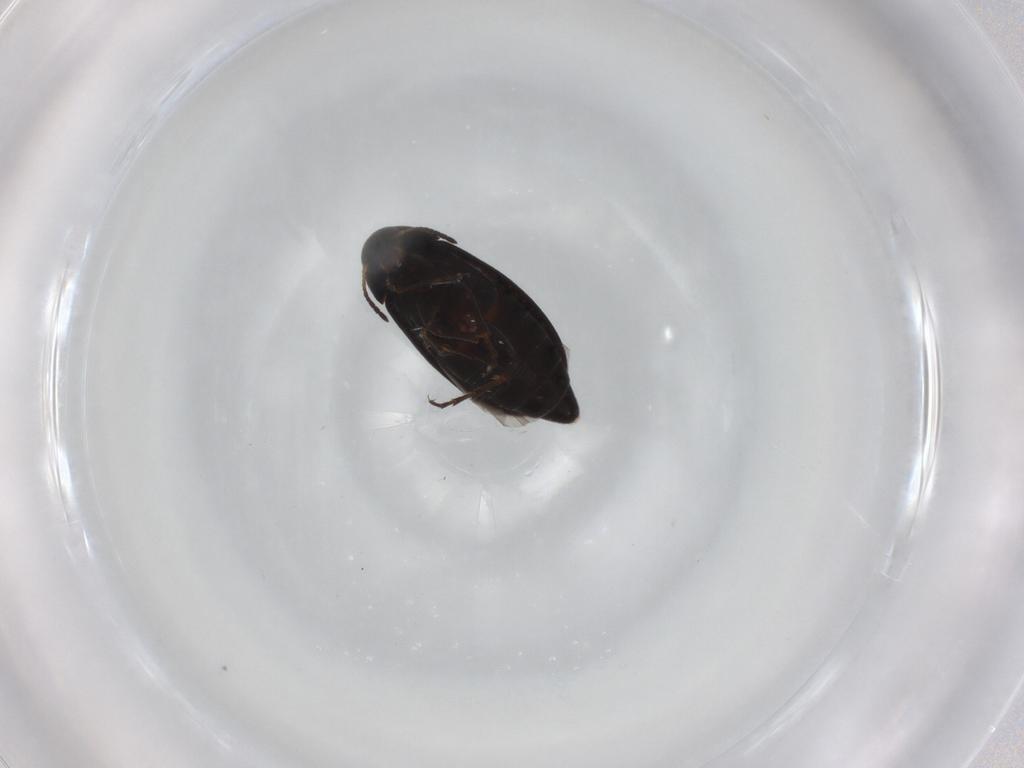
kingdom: Animalia
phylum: Arthropoda
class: Insecta
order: Coleoptera
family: Scraptiidae
